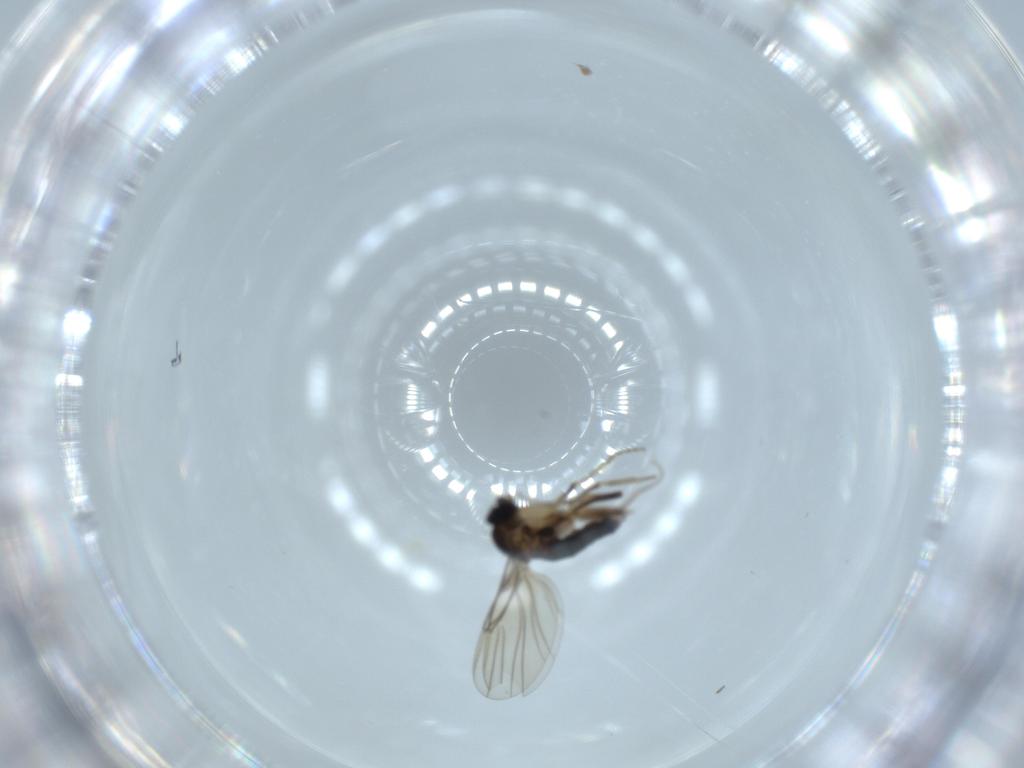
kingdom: Animalia
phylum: Arthropoda
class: Insecta
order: Diptera
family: Phoridae
